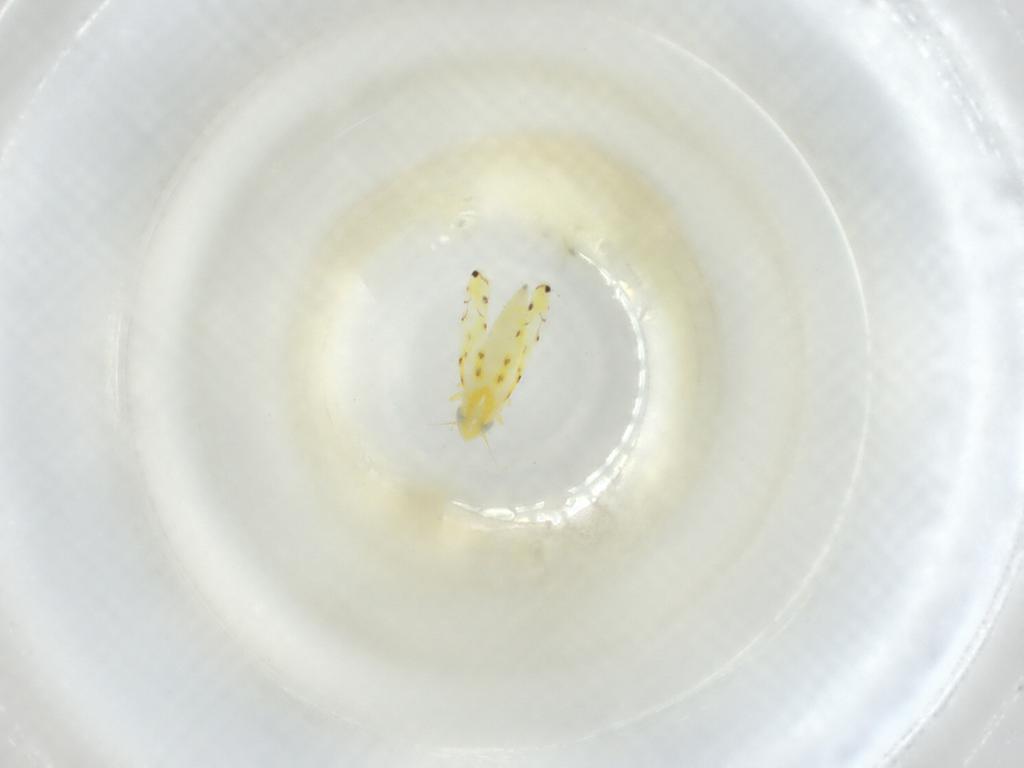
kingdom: Animalia
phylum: Arthropoda
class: Insecta
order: Hemiptera
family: Cicadellidae
